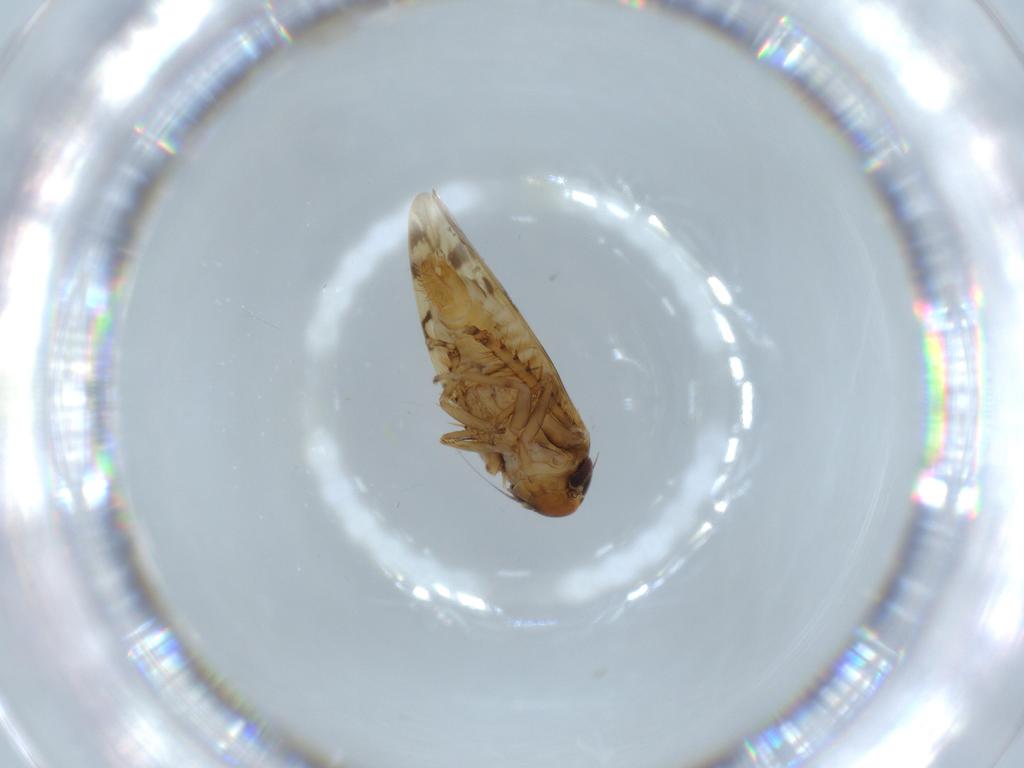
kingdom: Animalia
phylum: Arthropoda
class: Insecta
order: Hemiptera
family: Cicadellidae
